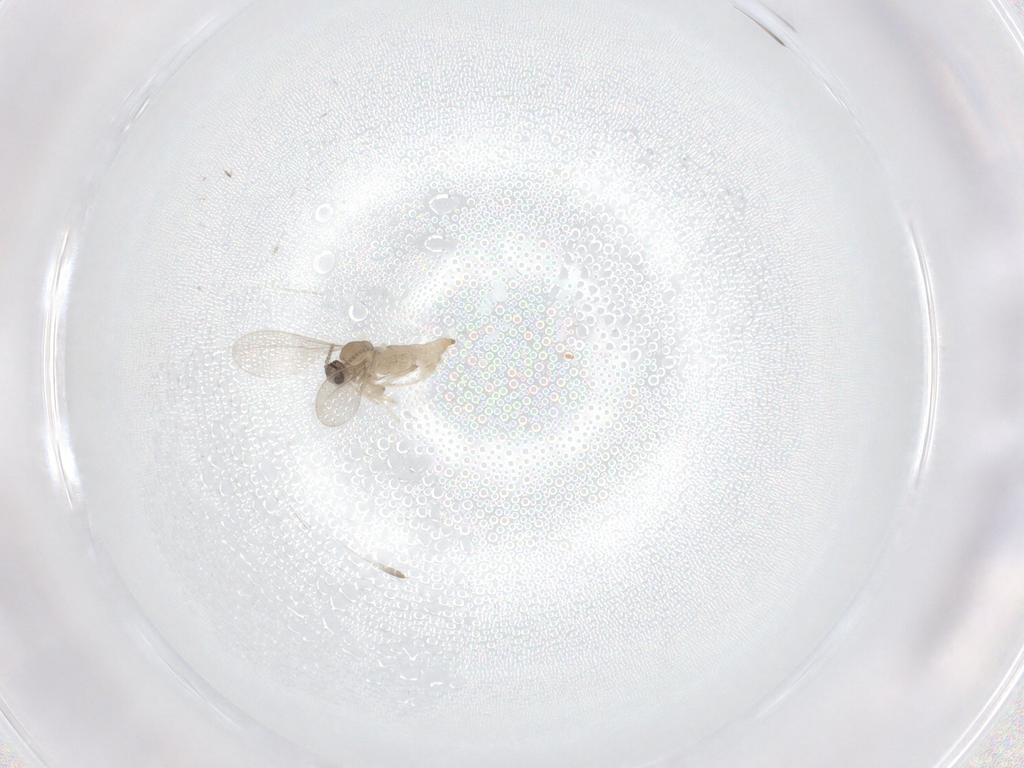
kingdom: Animalia
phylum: Arthropoda
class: Insecta
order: Diptera
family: Cecidomyiidae
